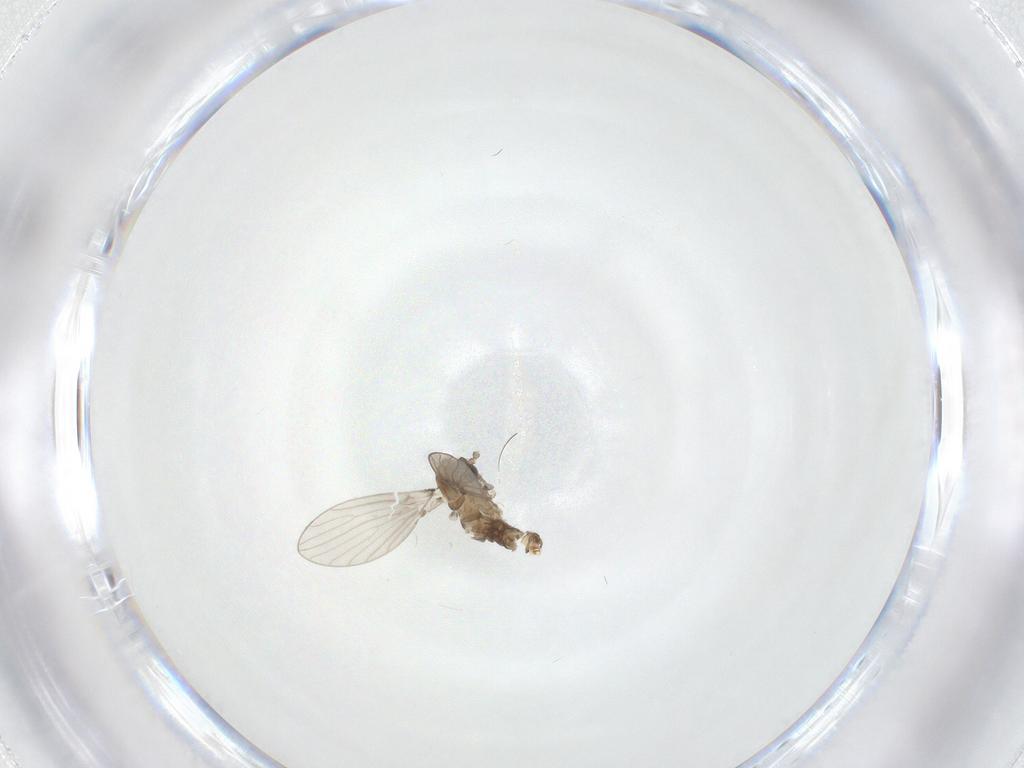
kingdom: Animalia
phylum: Arthropoda
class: Insecta
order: Diptera
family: Psychodidae
